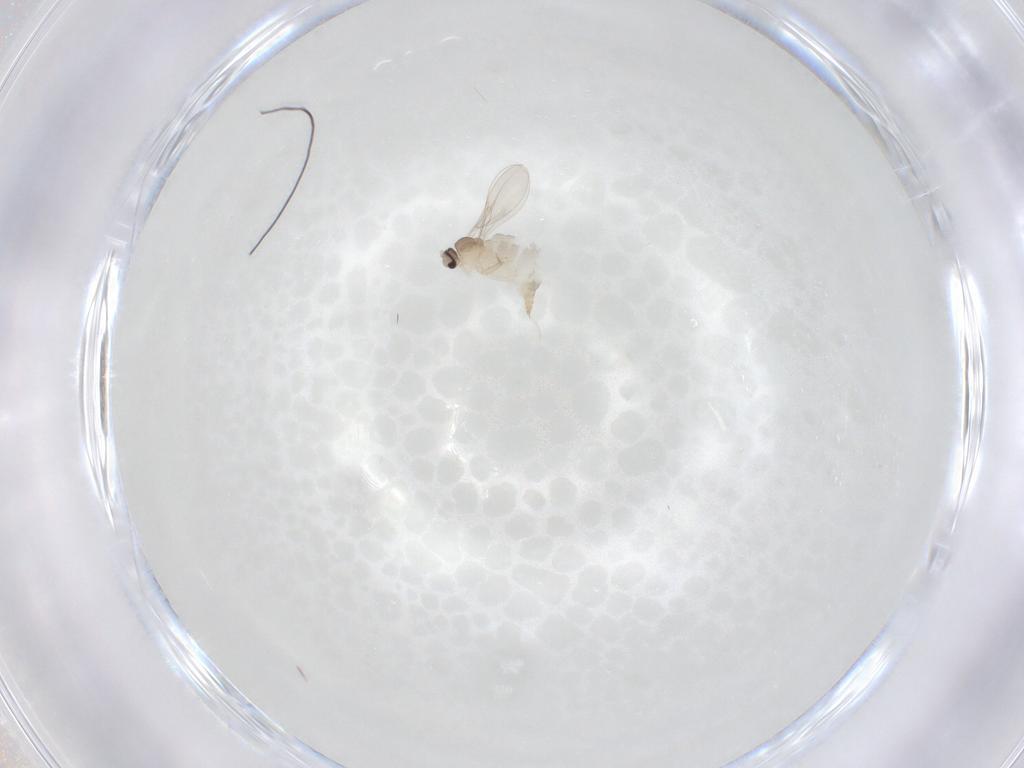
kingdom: Animalia
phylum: Arthropoda
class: Insecta
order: Diptera
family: Cecidomyiidae
